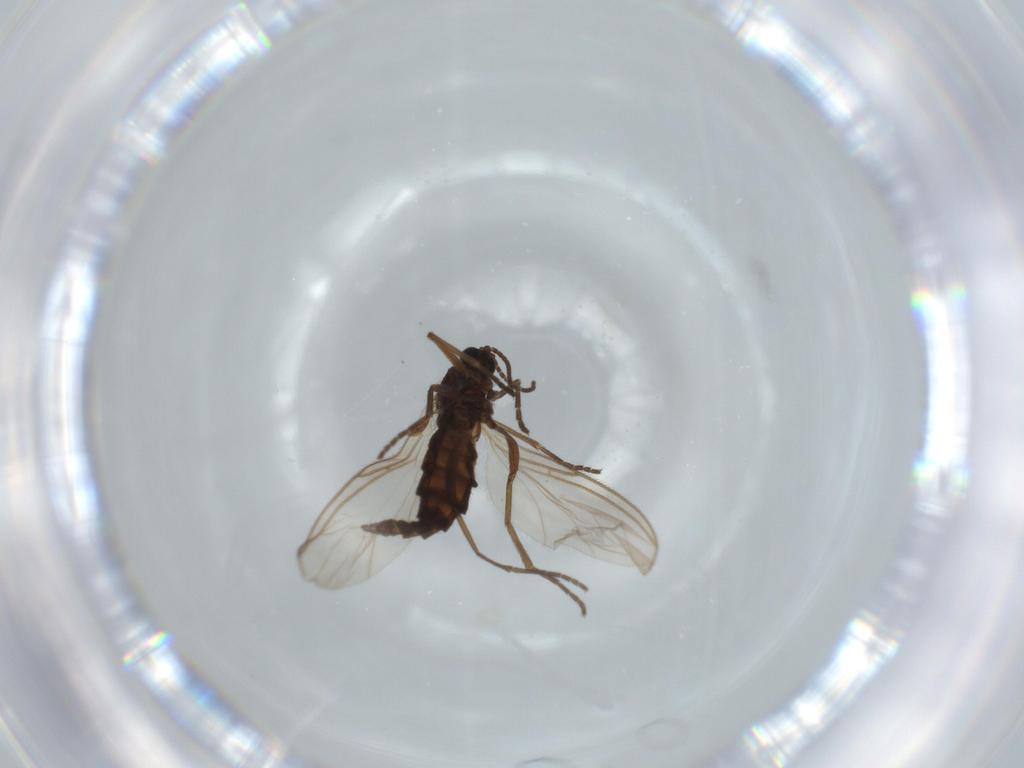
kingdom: Animalia
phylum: Arthropoda
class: Insecta
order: Diptera
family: Sciaridae
